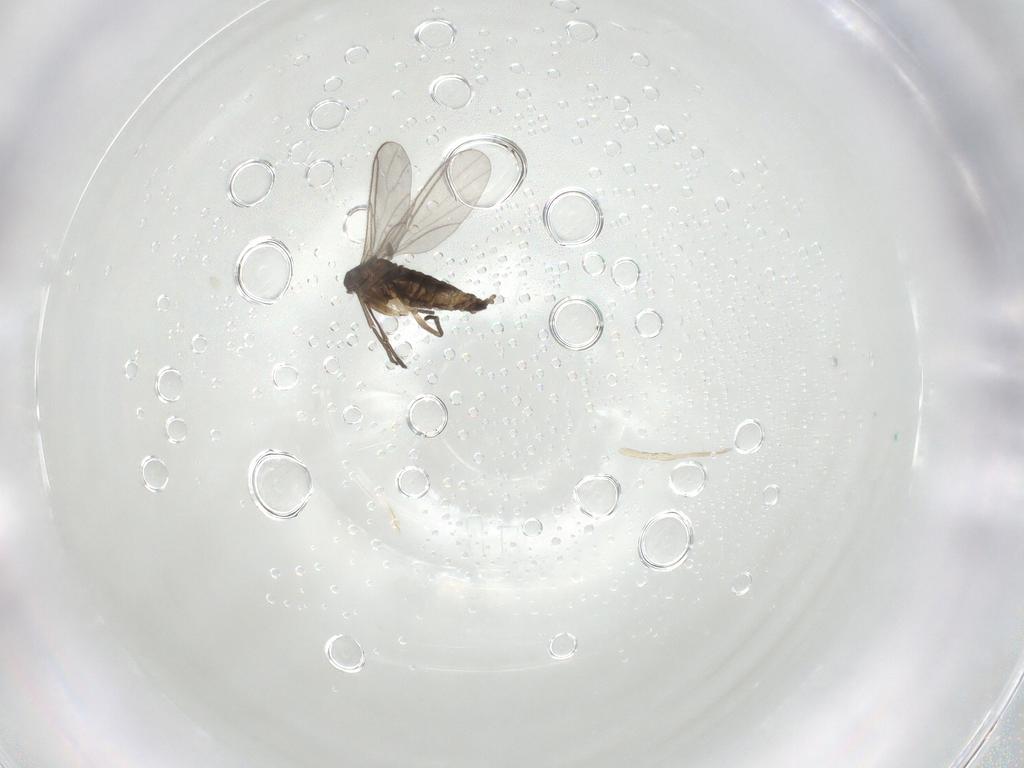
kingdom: Animalia
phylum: Arthropoda
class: Insecta
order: Diptera
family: Sciaridae
